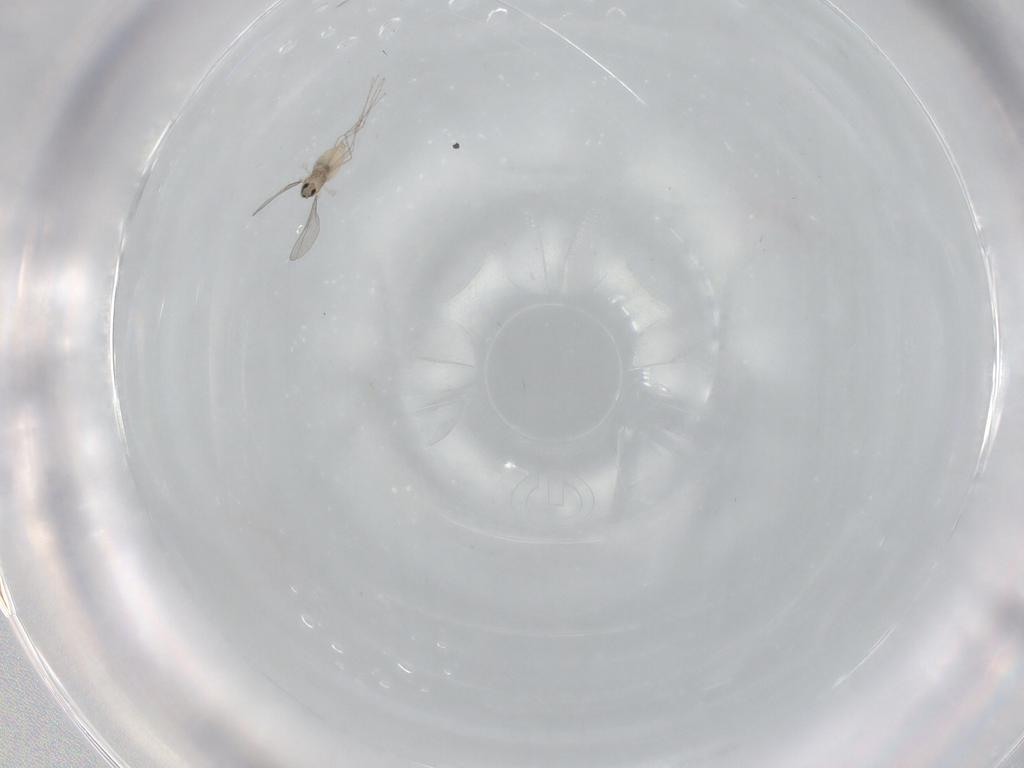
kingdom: Animalia
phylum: Arthropoda
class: Insecta
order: Diptera
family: Cecidomyiidae
